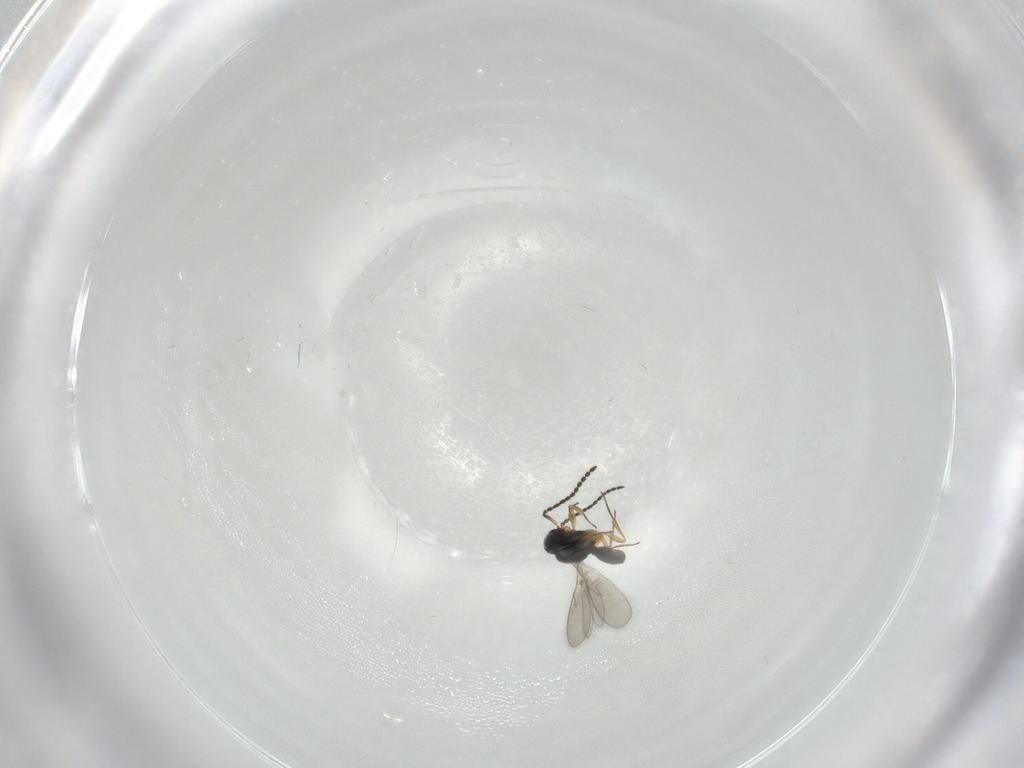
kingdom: Animalia
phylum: Arthropoda
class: Insecta
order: Hymenoptera
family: Scelionidae
